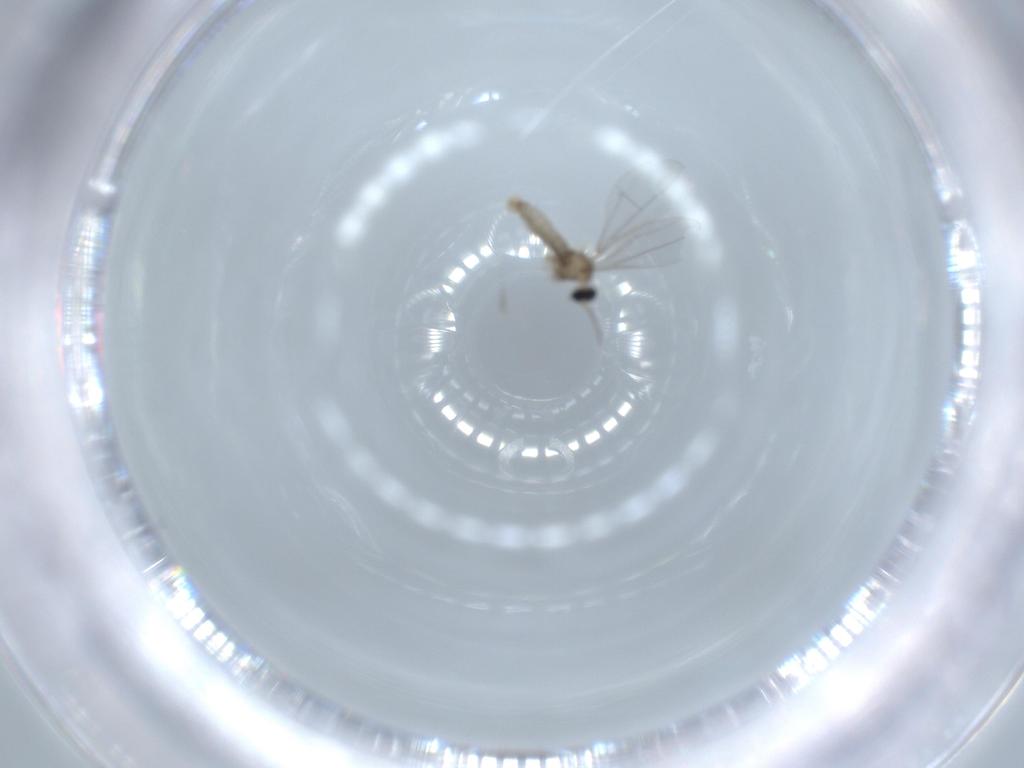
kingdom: Animalia
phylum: Arthropoda
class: Insecta
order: Diptera
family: Cecidomyiidae
